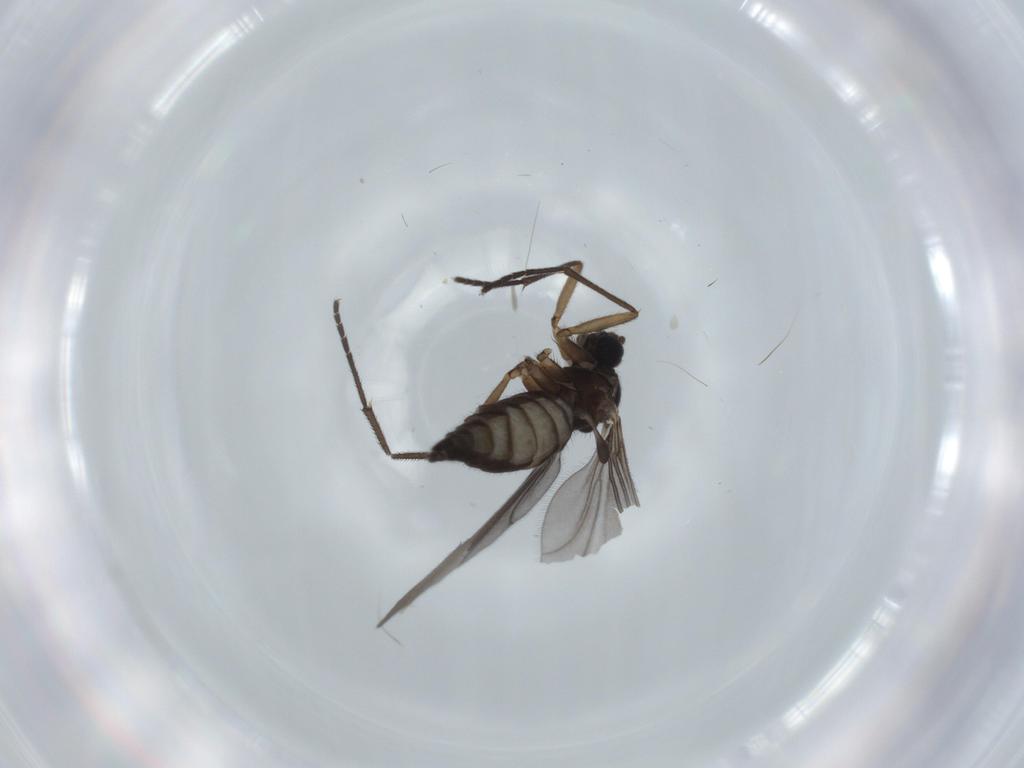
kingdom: Animalia
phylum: Arthropoda
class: Insecta
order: Diptera
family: Sciaridae
